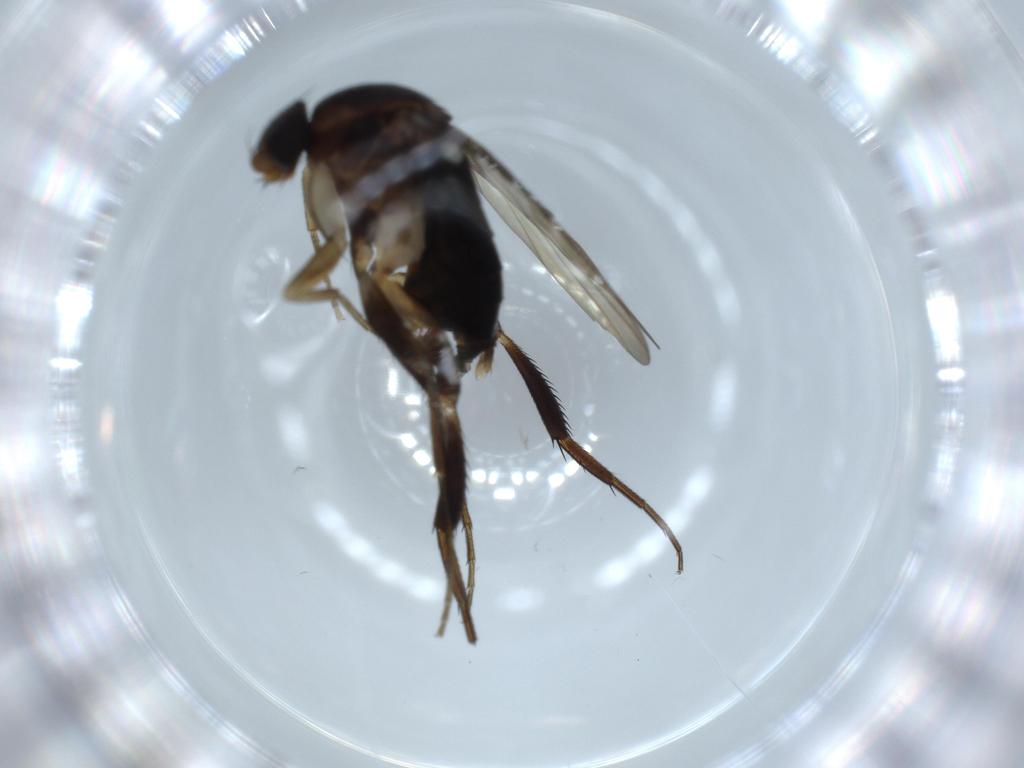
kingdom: Animalia
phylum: Arthropoda
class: Insecta
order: Diptera
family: Phoridae
